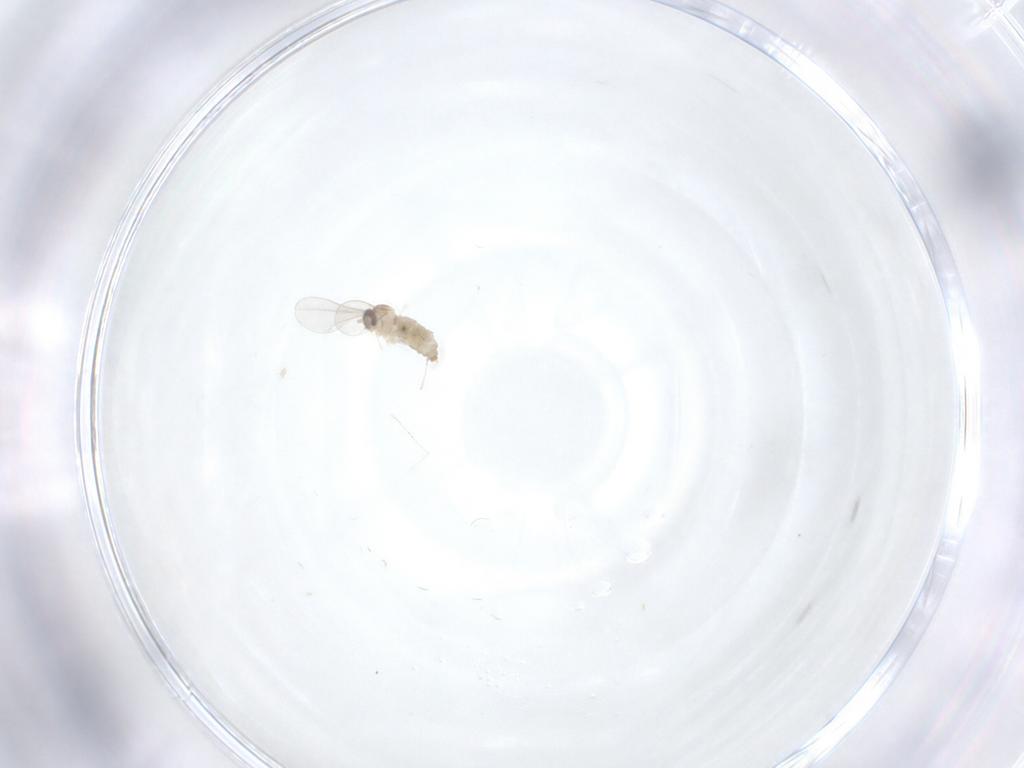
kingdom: Animalia
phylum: Arthropoda
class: Insecta
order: Diptera
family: Cecidomyiidae
